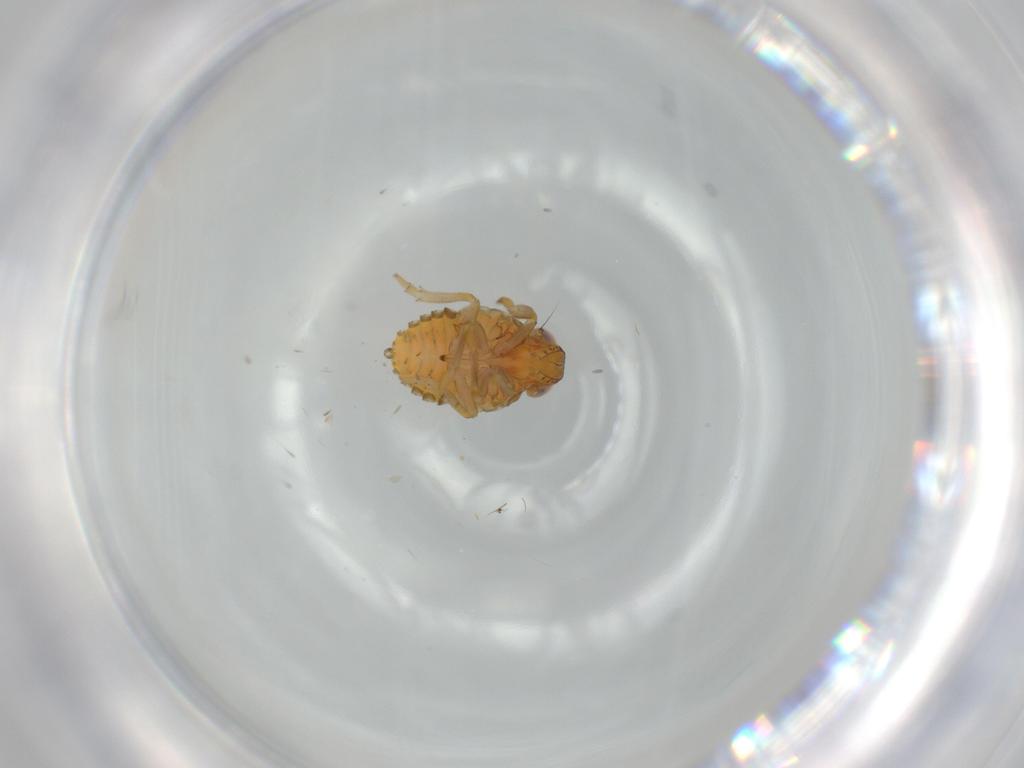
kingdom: Animalia
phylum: Arthropoda
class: Insecta
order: Hemiptera
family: Issidae
